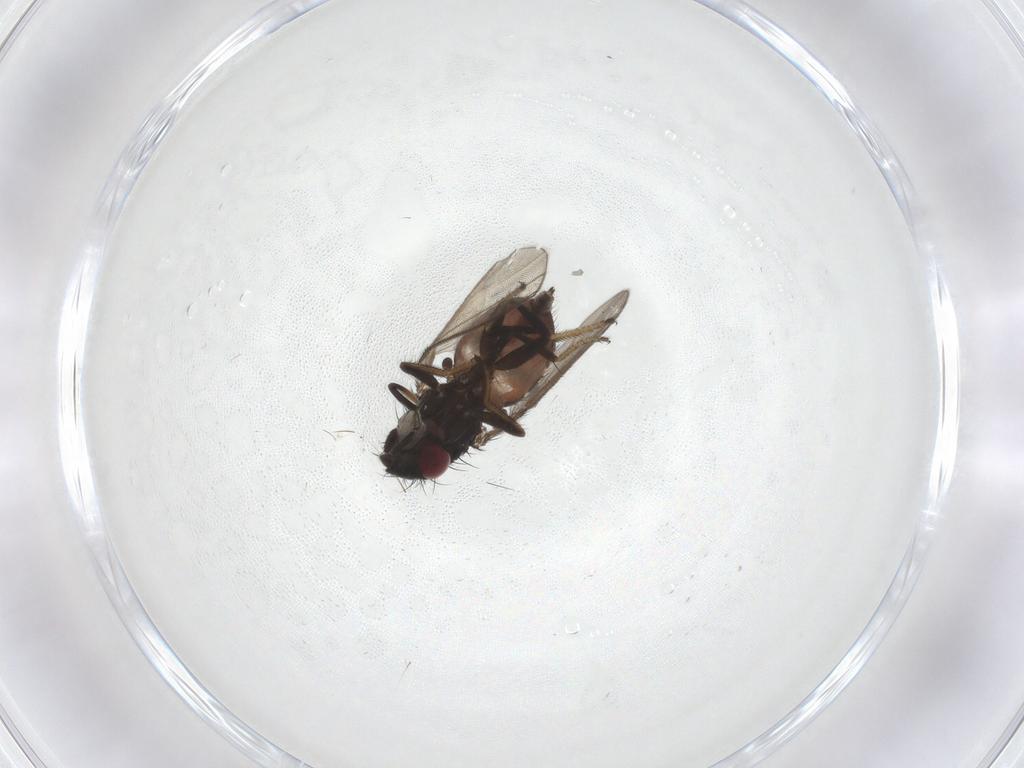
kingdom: Animalia
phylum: Arthropoda
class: Insecta
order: Diptera
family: Milichiidae
